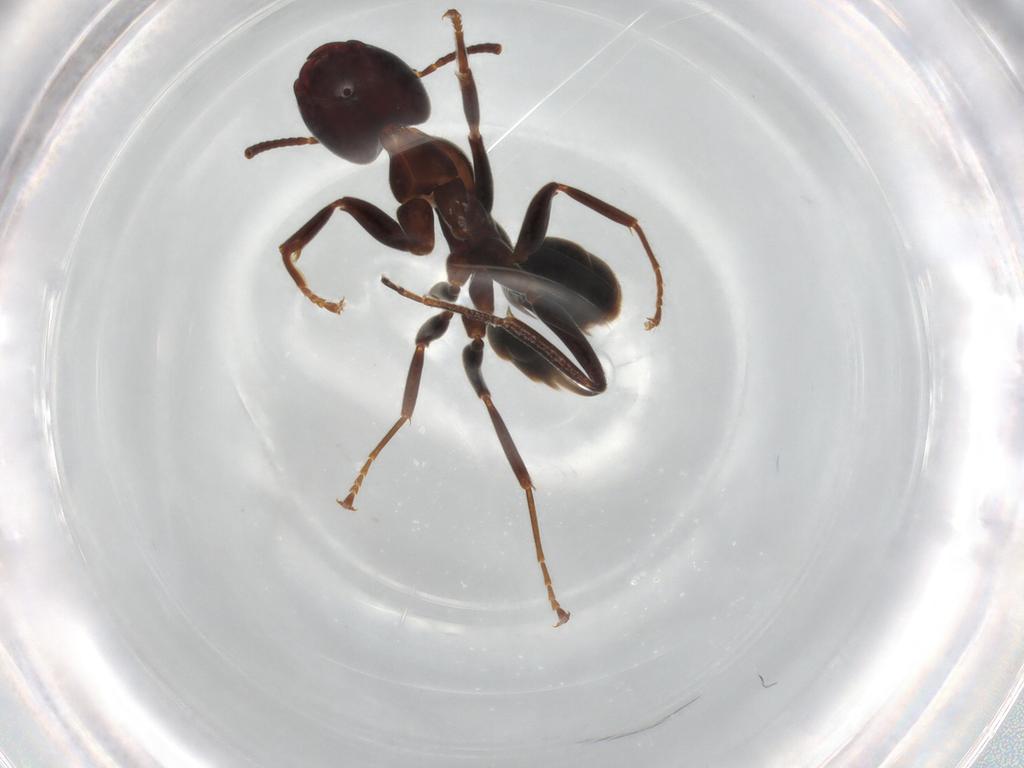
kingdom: Animalia
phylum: Arthropoda
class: Insecta
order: Hymenoptera
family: Formicidae
